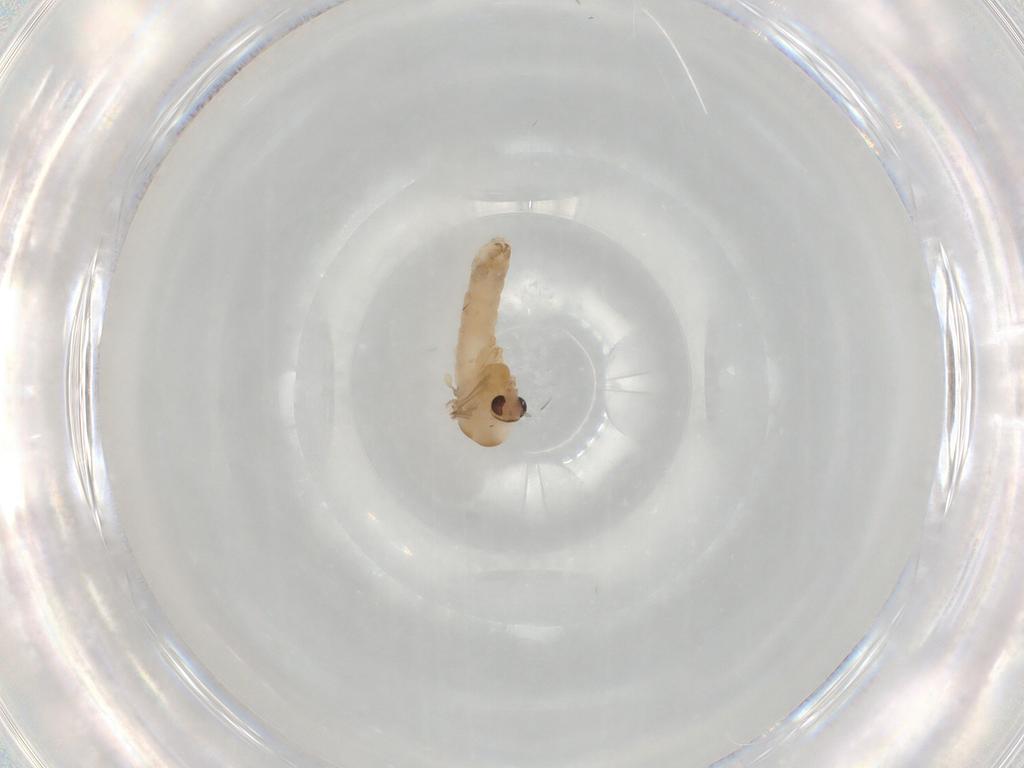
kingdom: Animalia
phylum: Arthropoda
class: Insecta
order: Diptera
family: Chironomidae
